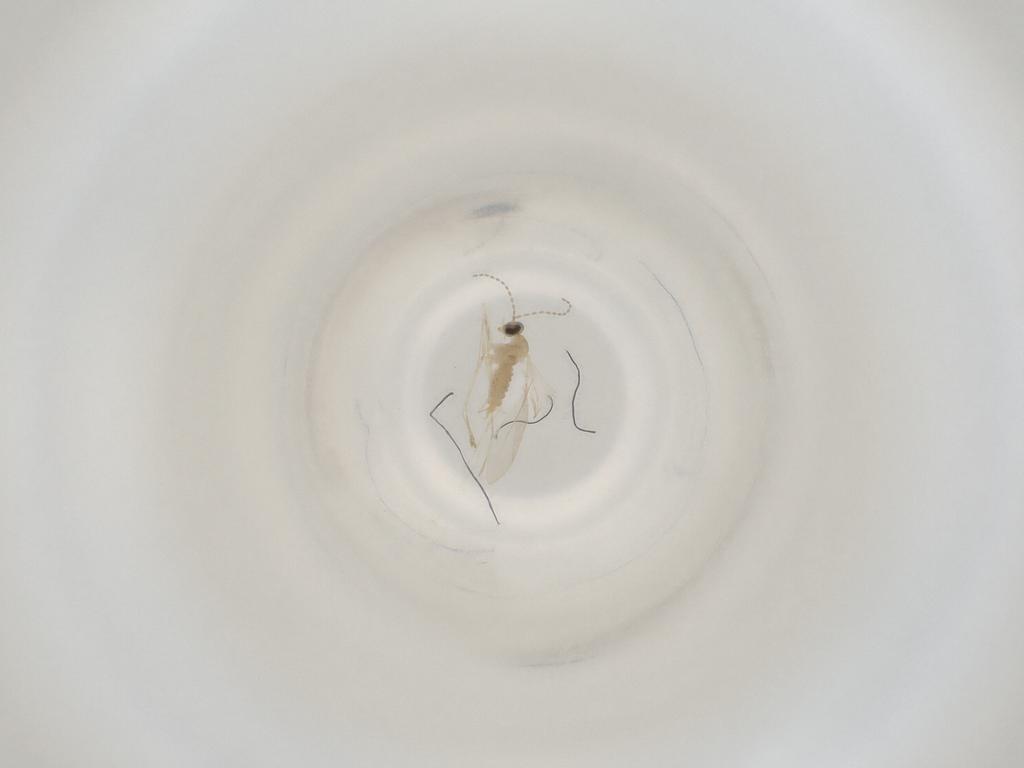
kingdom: Animalia
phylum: Arthropoda
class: Insecta
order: Diptera
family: Cecidomyiidae
